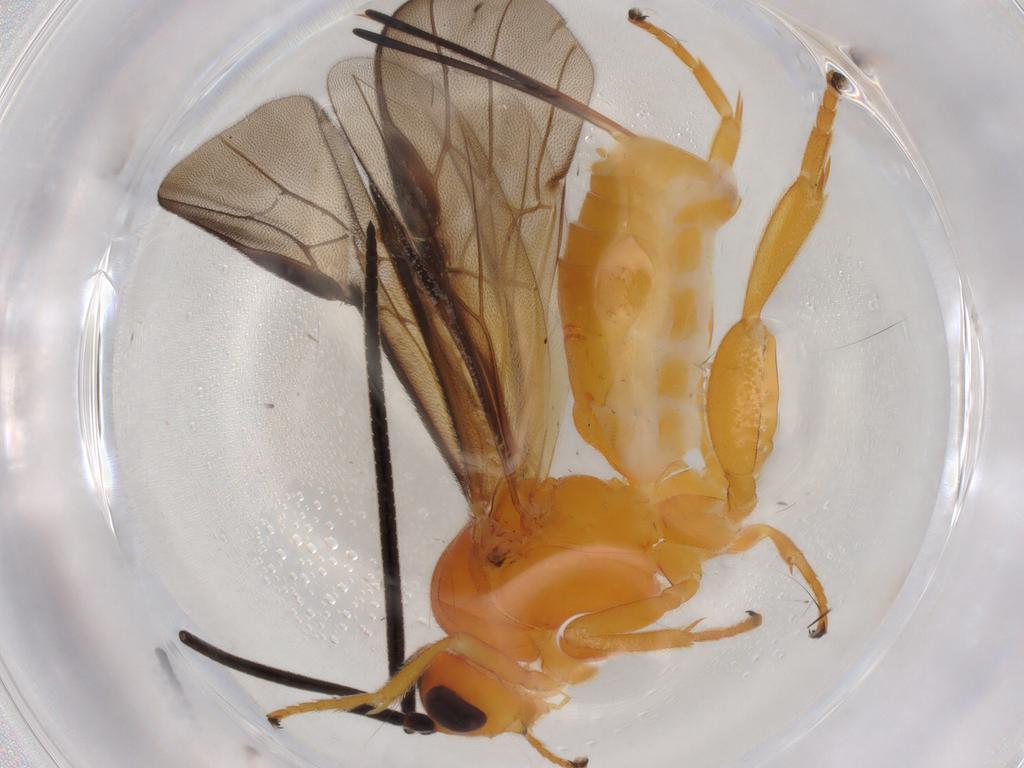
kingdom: Animalia
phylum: Arthropoda
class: Insecta
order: Hymenoptera
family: Braconidae
